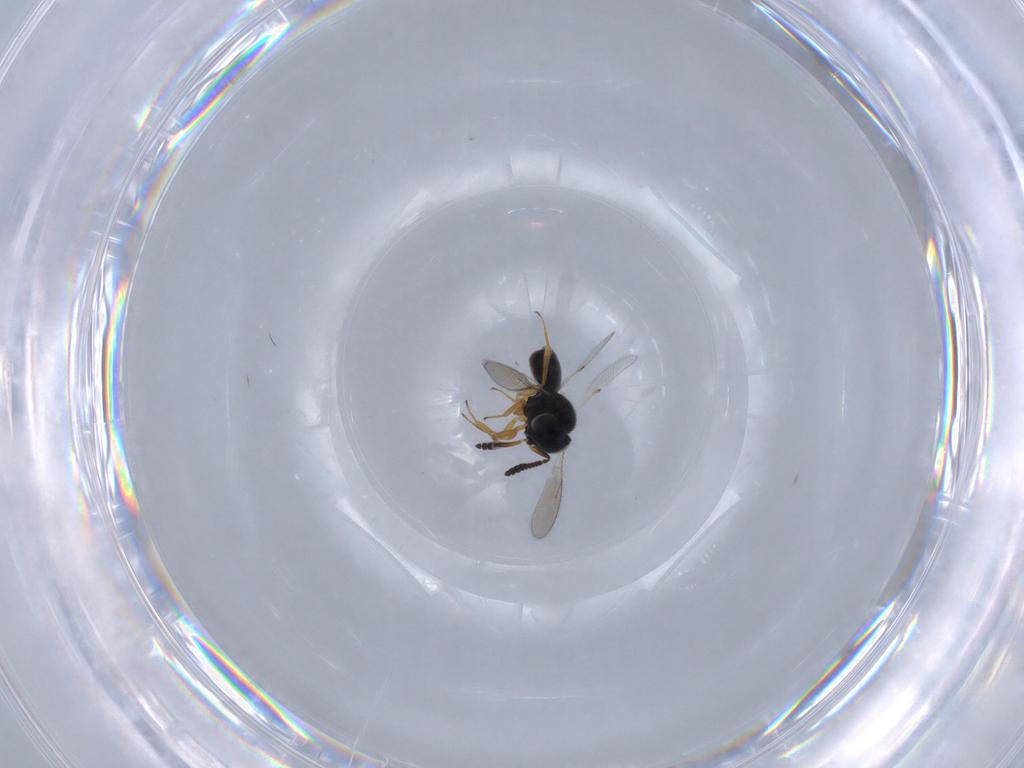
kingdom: Animalia
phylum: Arthropoda
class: Insecta
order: Hymenoptera
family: Scelionidae
